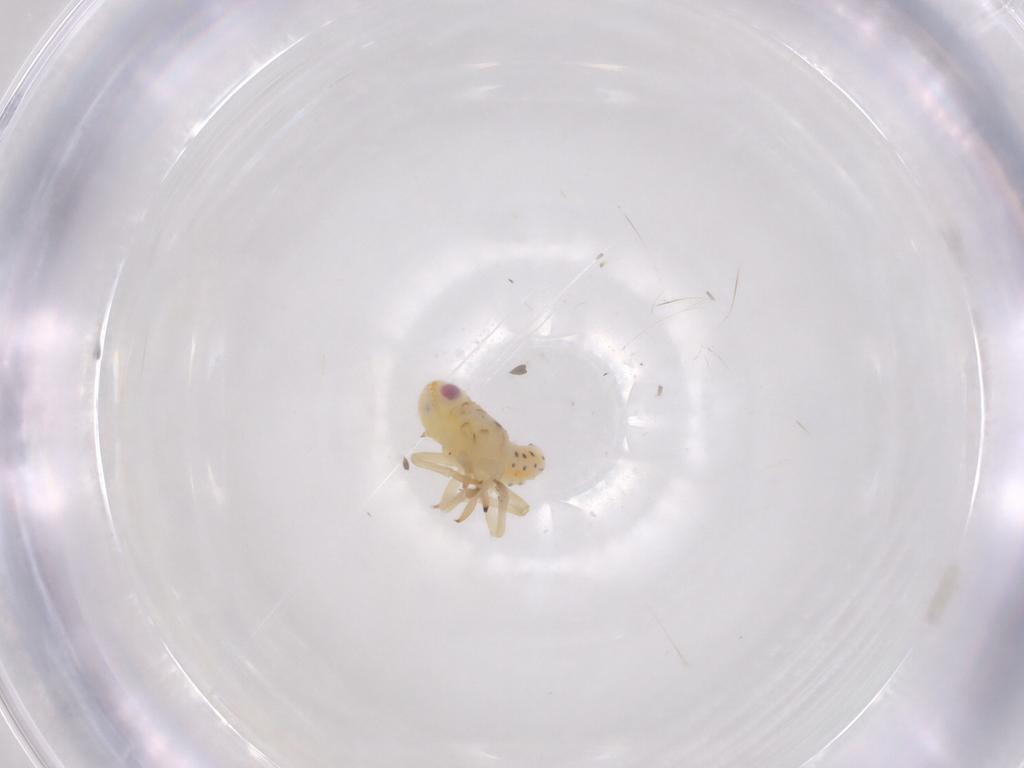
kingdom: Animalia
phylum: Arthropoda
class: Insecta
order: Hemiptera
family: Tropiduchidae
